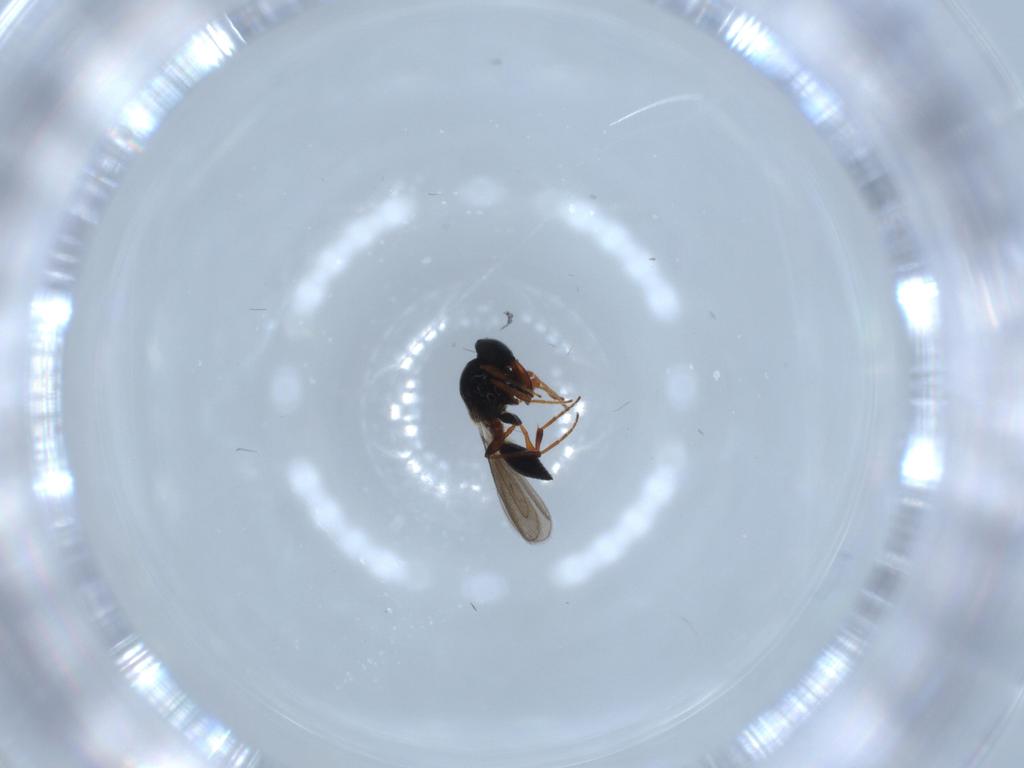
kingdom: Animalia
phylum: Arthropoda
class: Insecta
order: Hymenoptera
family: Platygastridae
